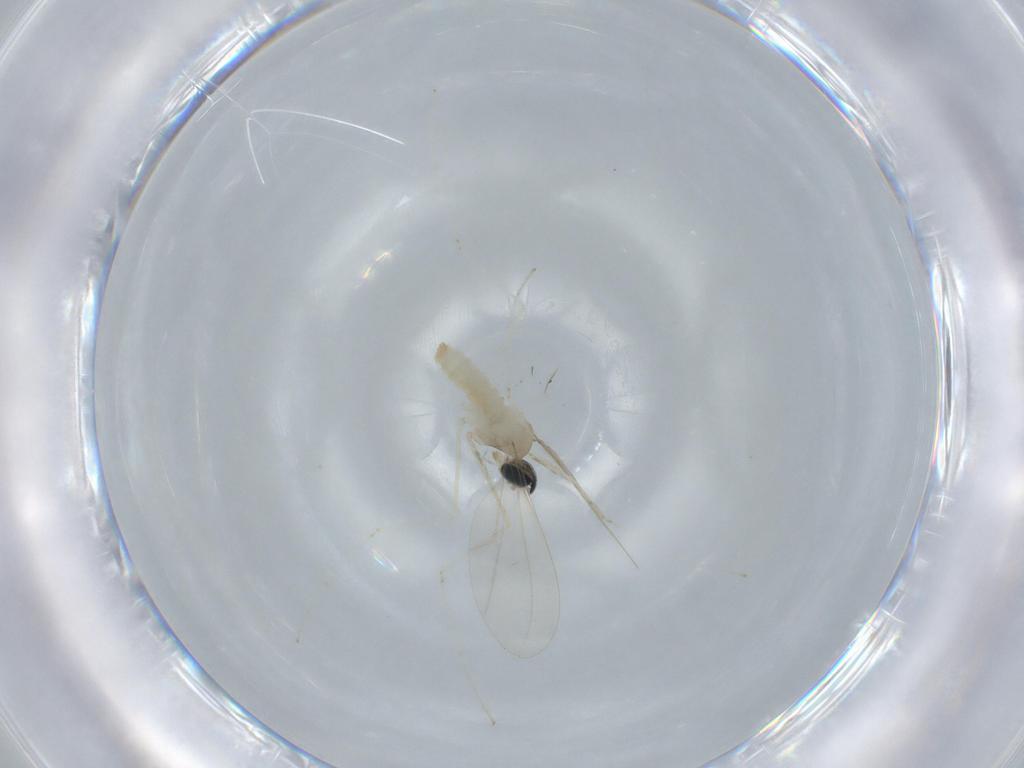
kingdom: Animalia
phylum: Arthropoda
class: Insecta
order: Diptera
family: Cecidomyiidae
